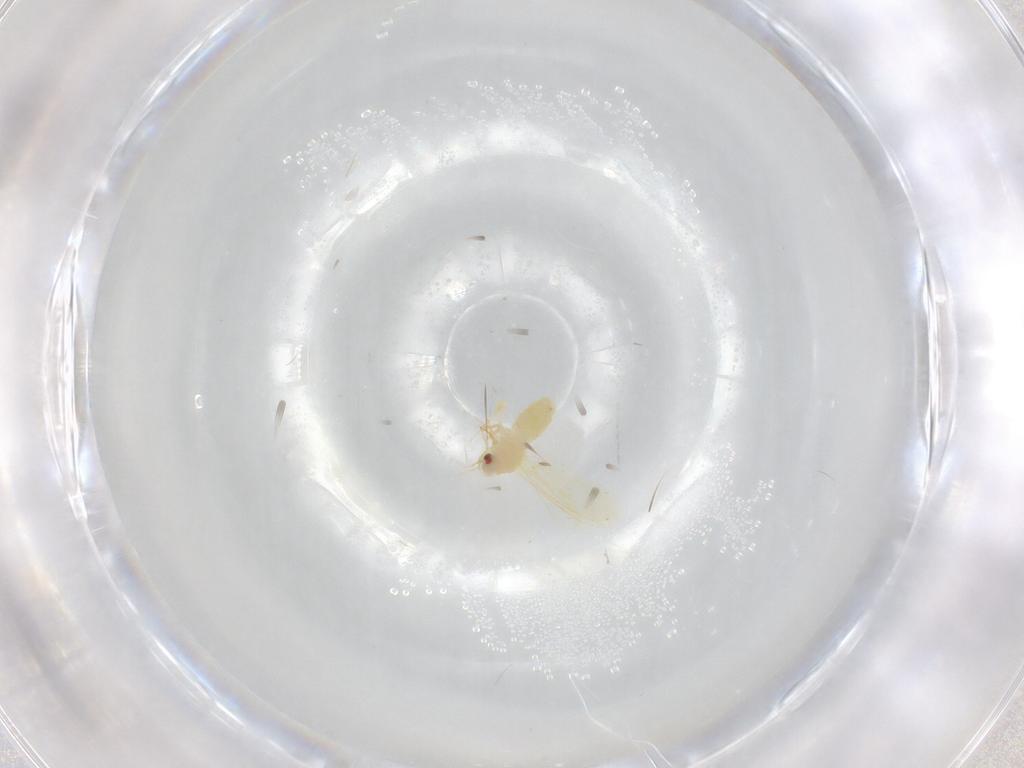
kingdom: Animalia
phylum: Arthropoda
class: Insecta
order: Hemiptera
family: Aleyrodidae
